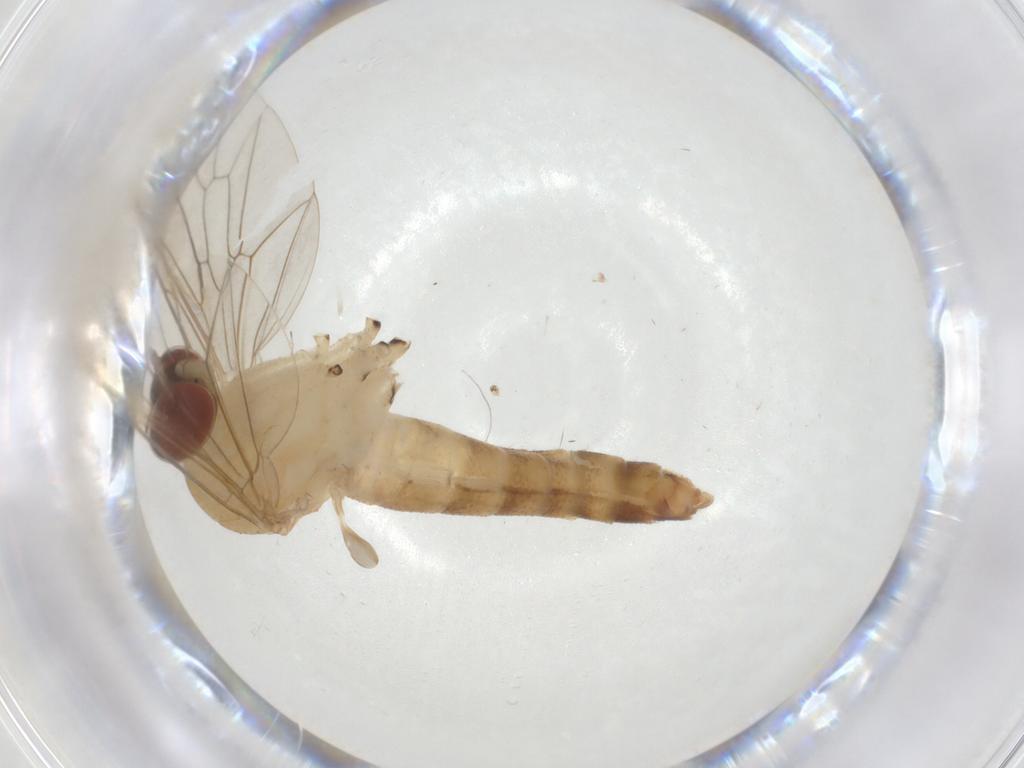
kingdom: Animalia
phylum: Arthropoda
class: Insecta
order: Diptera
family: Apsilocephalidae
